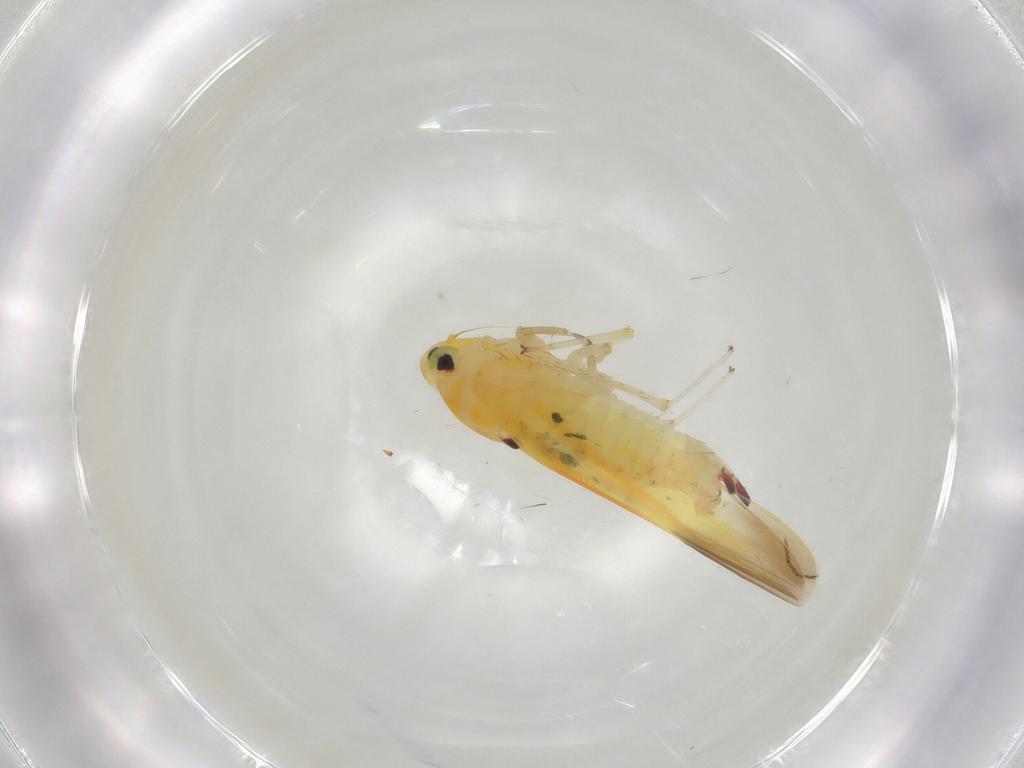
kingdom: Animalia
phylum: Arthropoda
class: Insecta
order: Hemiptera
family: Cicadellidae
